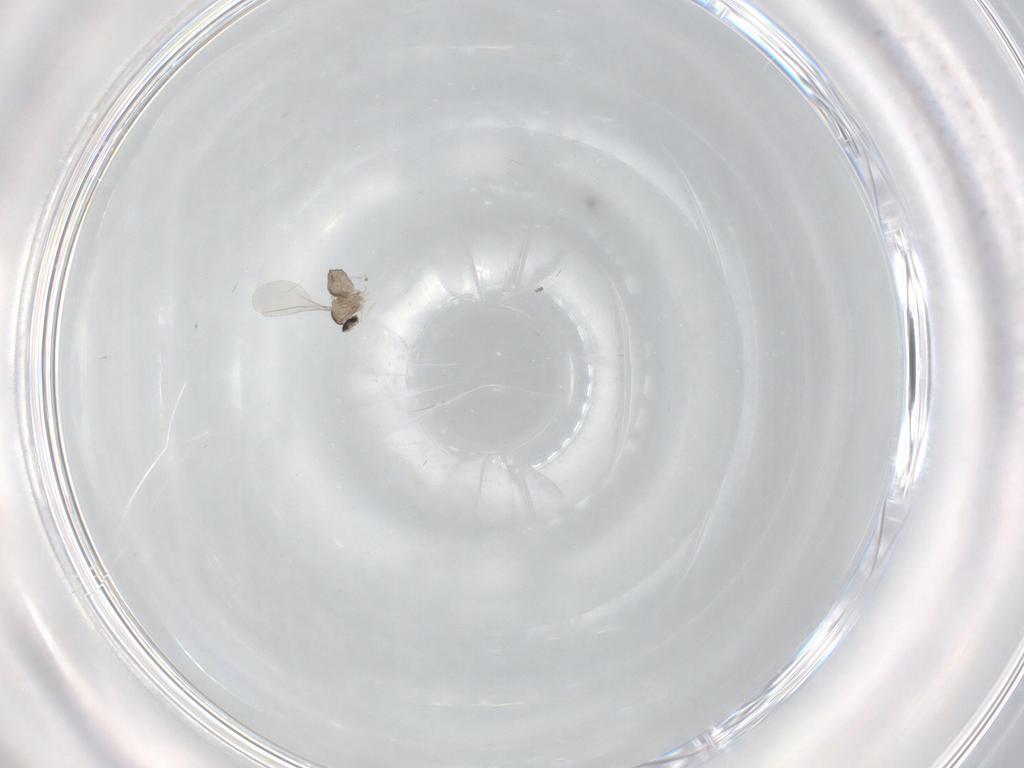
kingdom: Animalia
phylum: Arthropoda
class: Insecta
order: Diptera
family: Cecidomyiidae
